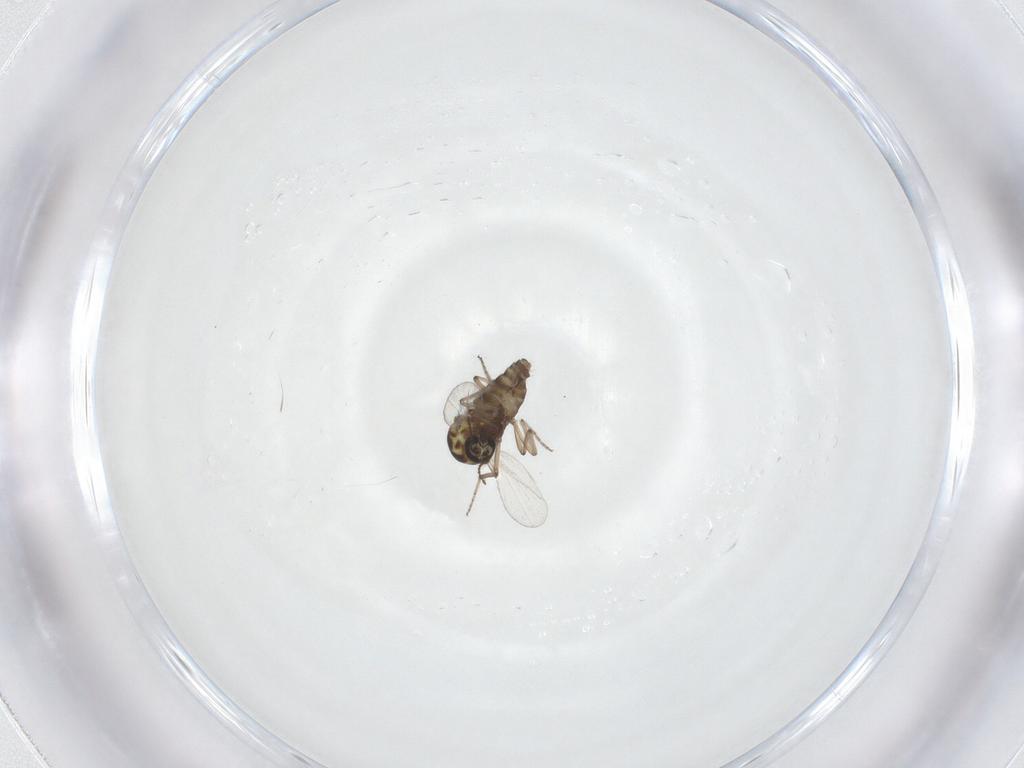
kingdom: Animalia
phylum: Arthropoda
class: Insecta
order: Diptera
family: Ceratopogonidae
